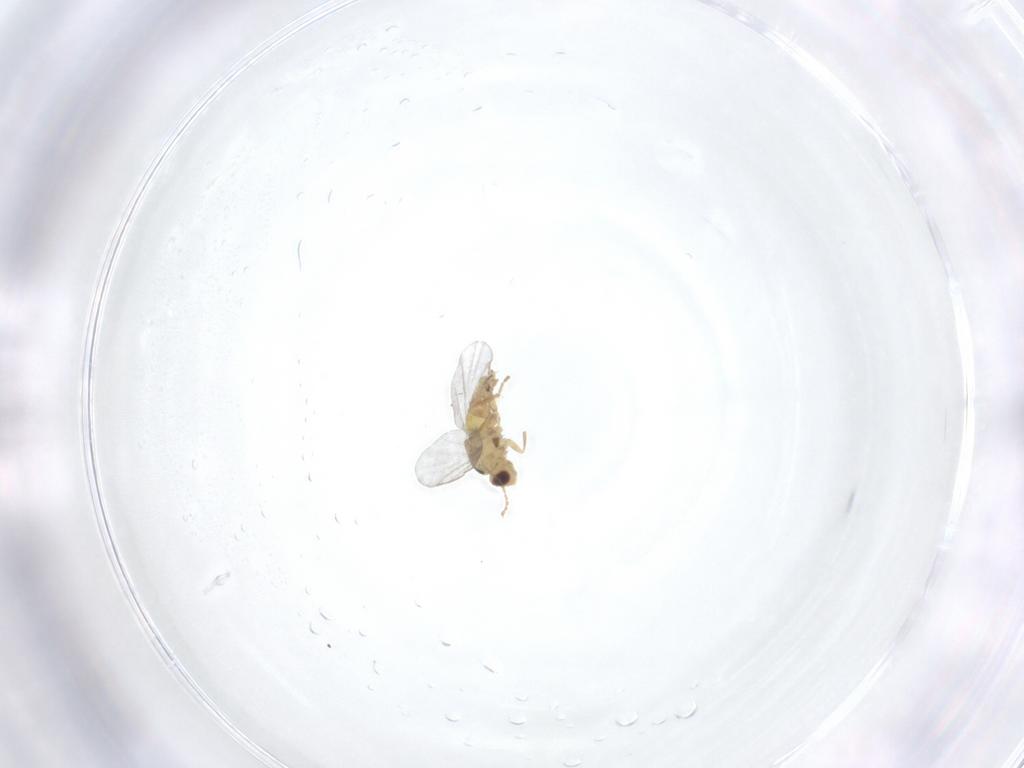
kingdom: Animalia
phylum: Arthropoda
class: Insecta
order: Diptera
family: Agromyzidae
